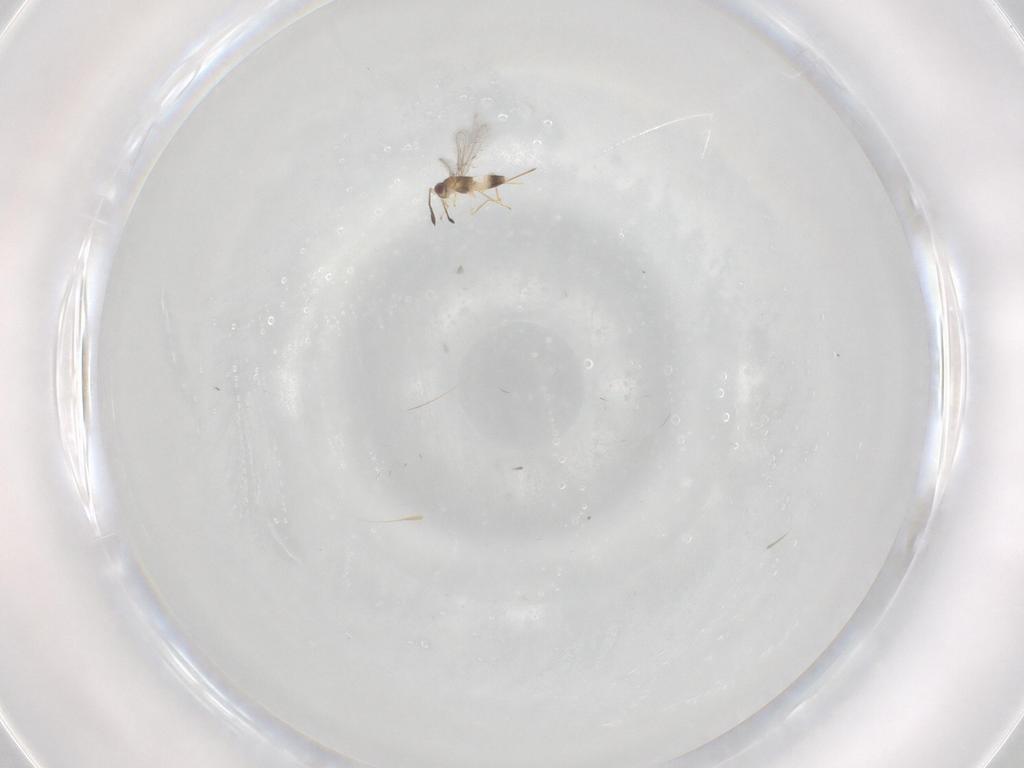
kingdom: Animalia
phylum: Arthropoda
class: Insecta
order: Hymenoptera
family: Mymaridae
